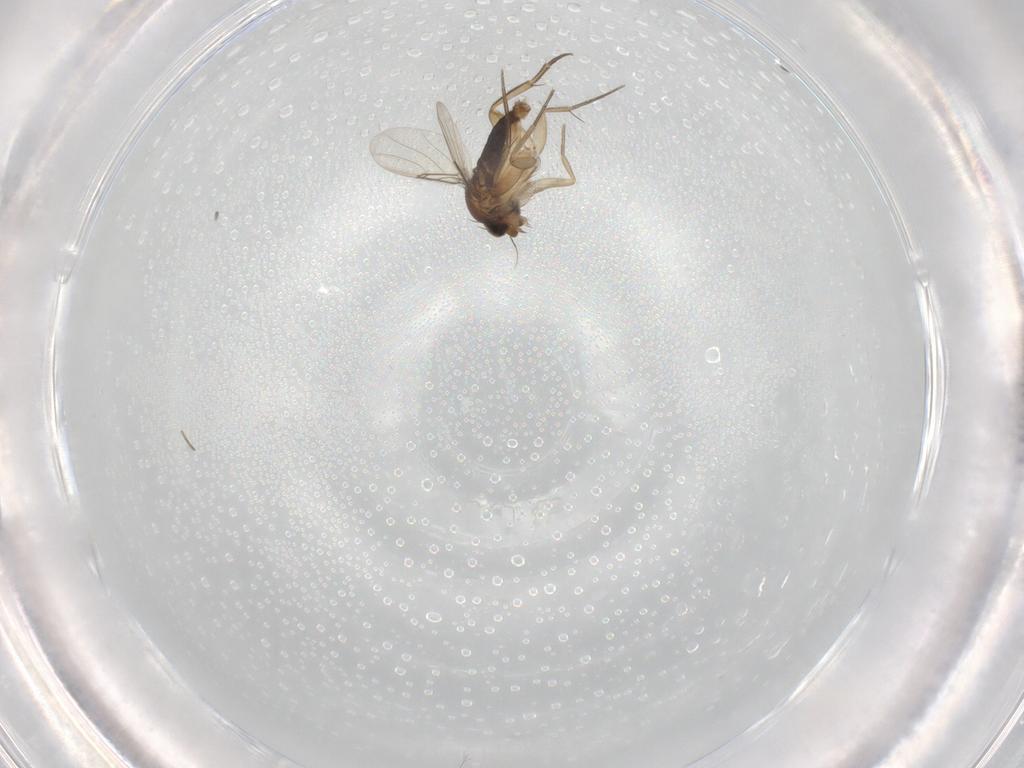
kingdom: Animalia
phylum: Arthropoda
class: Insecta
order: Diptera
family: Phoridae
